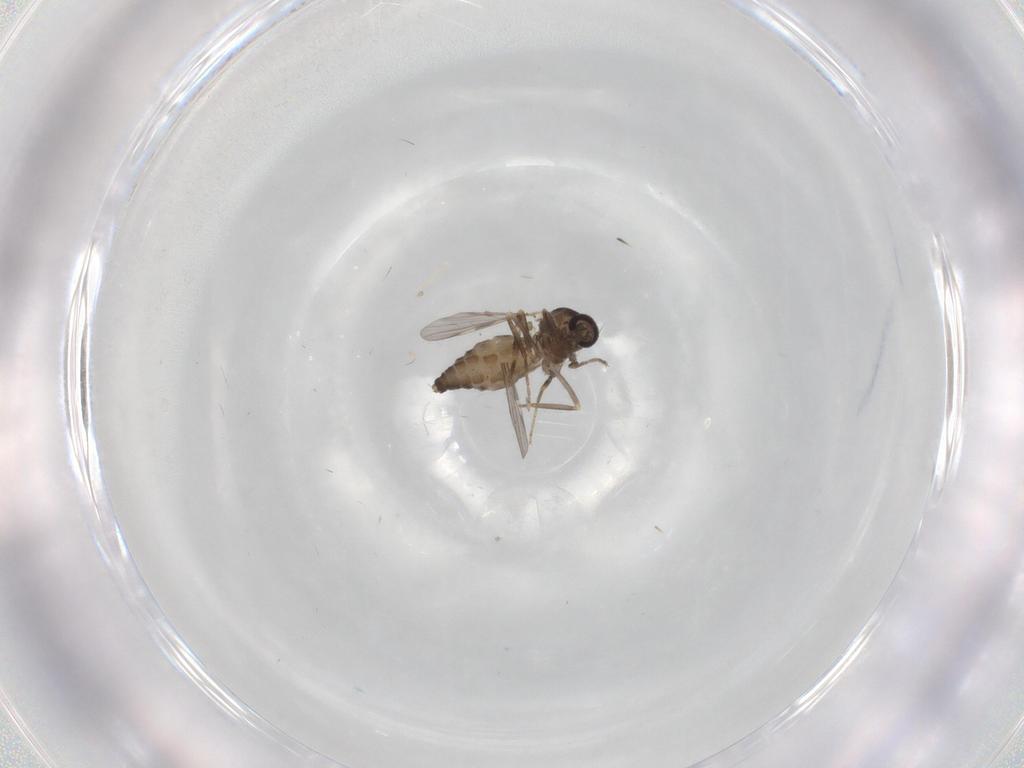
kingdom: Animalia
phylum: Arthropoda
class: Insecta
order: Diptera
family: Ceratopogonidae
